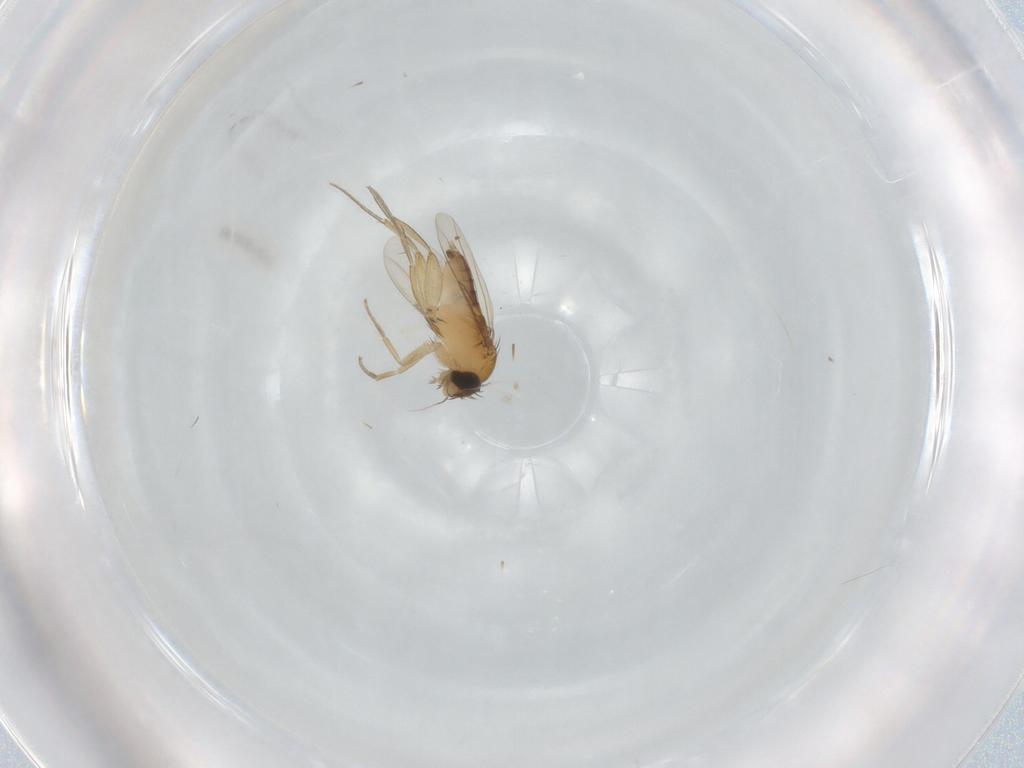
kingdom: Animalia
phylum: Arthropoda
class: Insecta
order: Diptera
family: Phoridae
